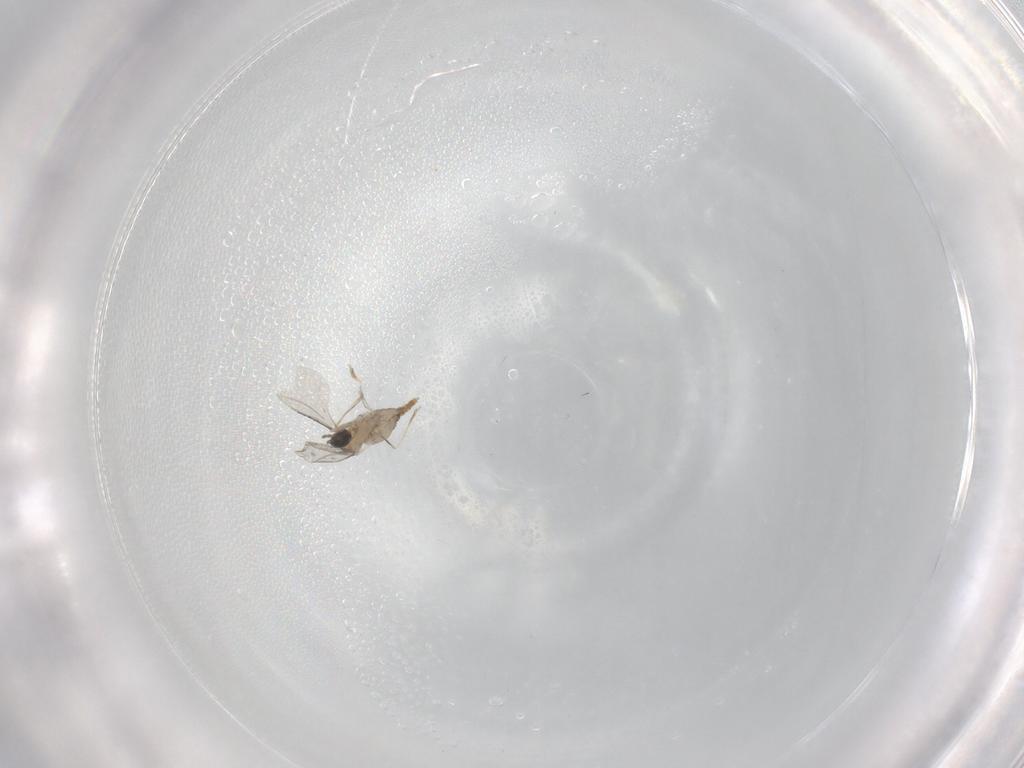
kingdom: Animalia
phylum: Arthropoda
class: Insecta
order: Diptera
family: Cecidomyiidae
